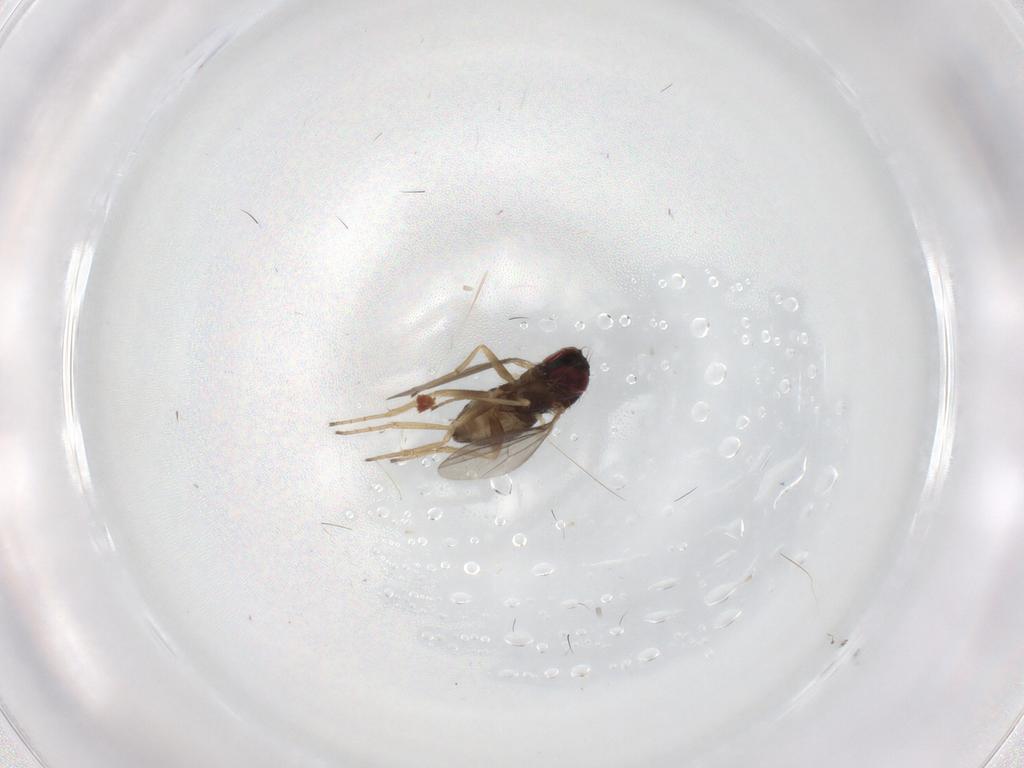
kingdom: Animalia
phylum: Arthropoda
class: Insecta
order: Diptera
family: Dolichopodidae
